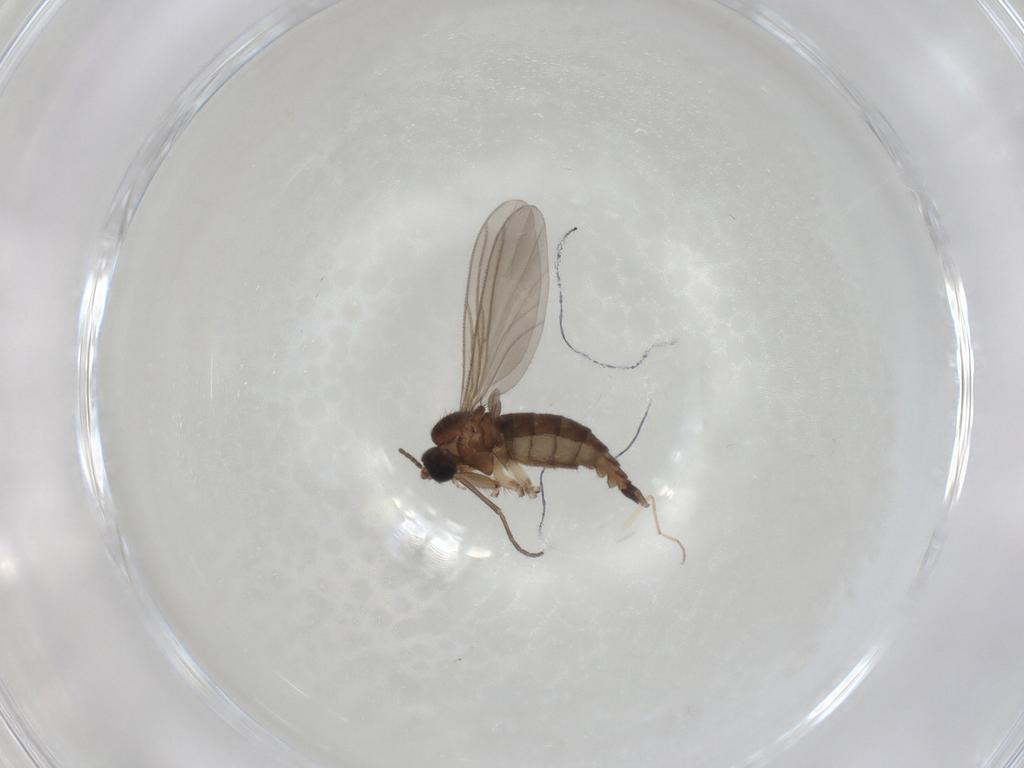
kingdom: Animalia
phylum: Arthropoda
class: Insecta
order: Diptera
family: Sciaridae
